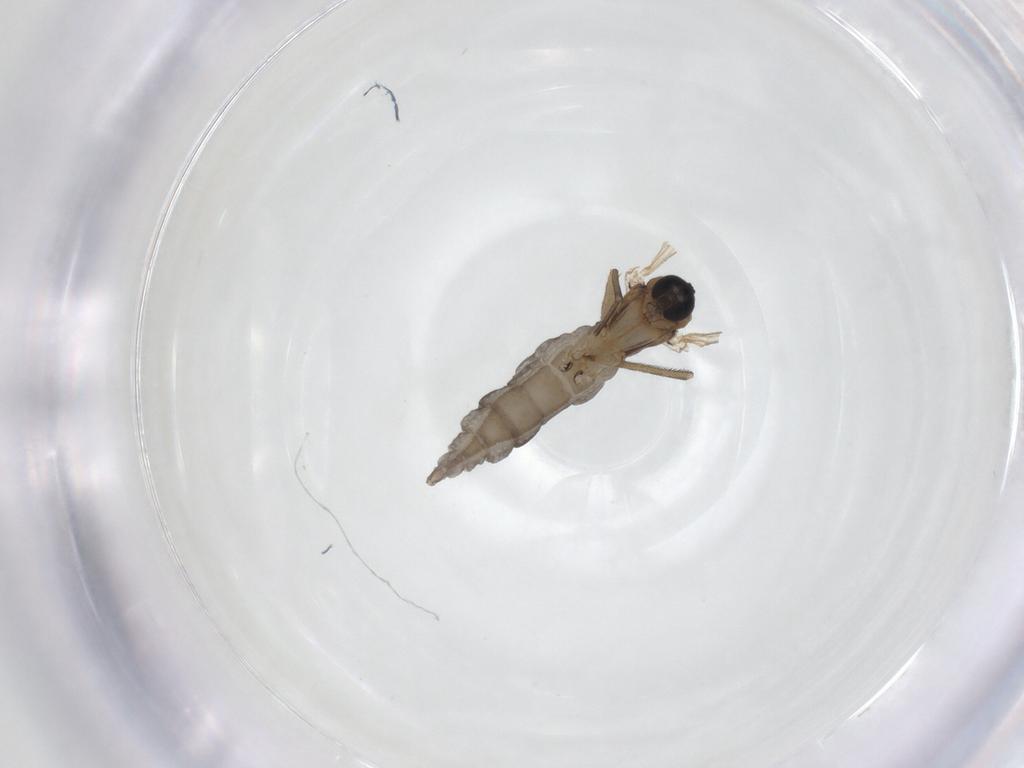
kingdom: Animalia
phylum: Arthropoda
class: Insecta
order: Diptera
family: Sciaridae
